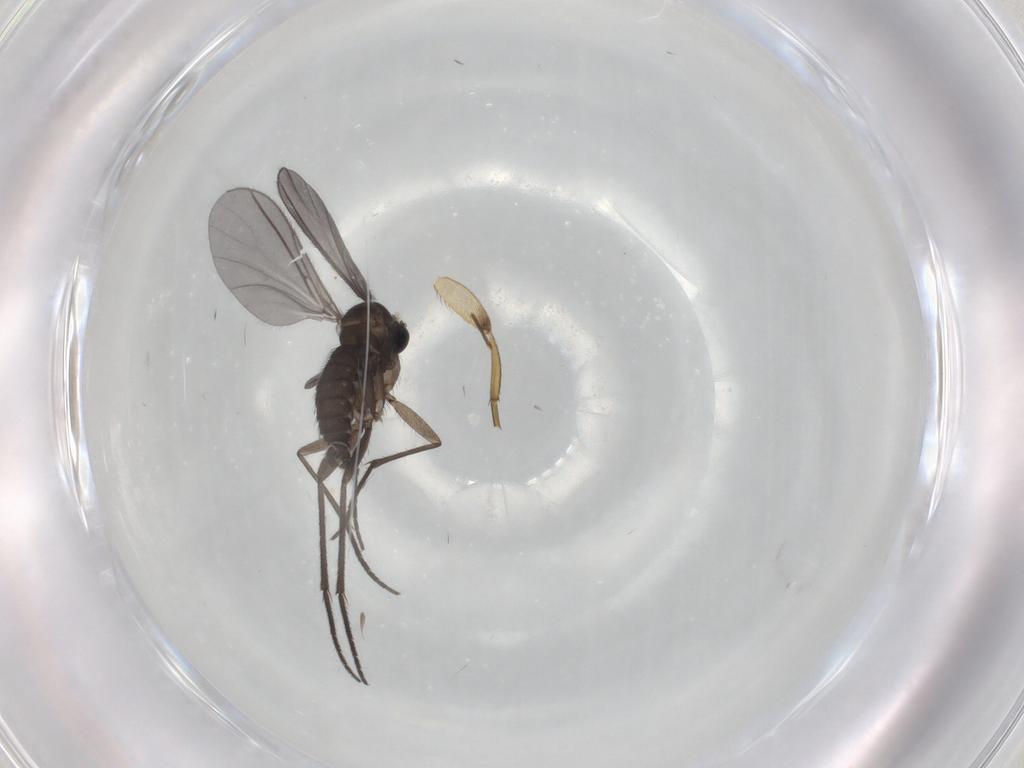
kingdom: Animalia
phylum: Arthropoda
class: Insecta
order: Diptera
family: Sciaridae
